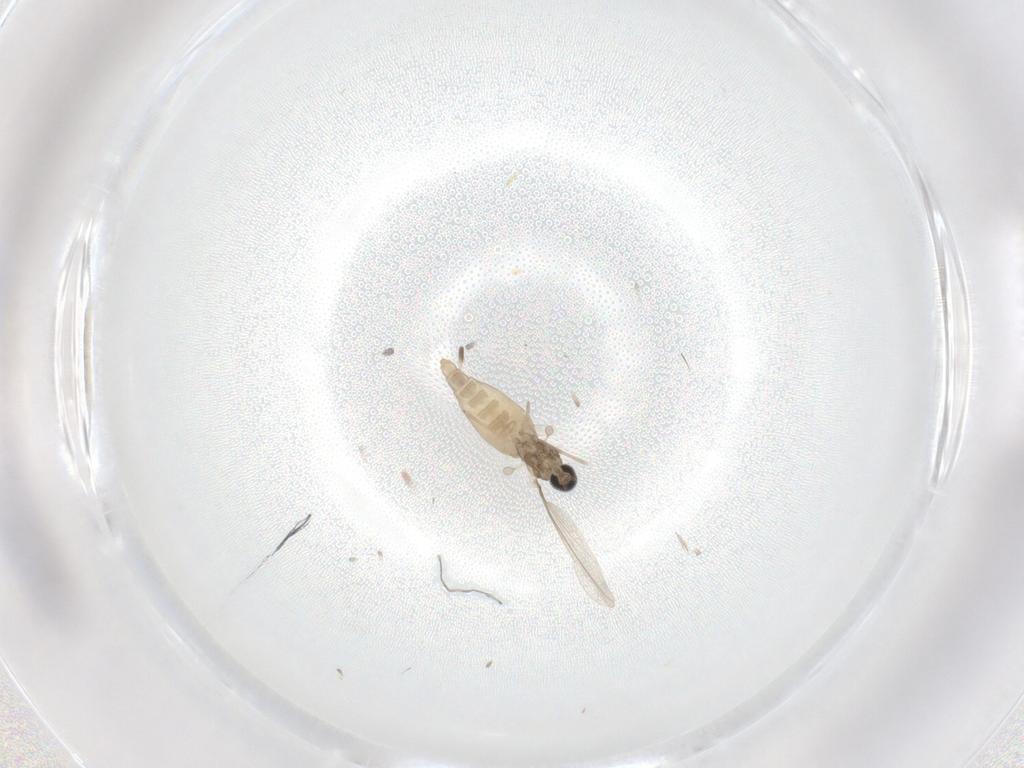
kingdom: Animalia
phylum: Arthropoda
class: Insecta
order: Diptera
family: Cecidomyiidae
